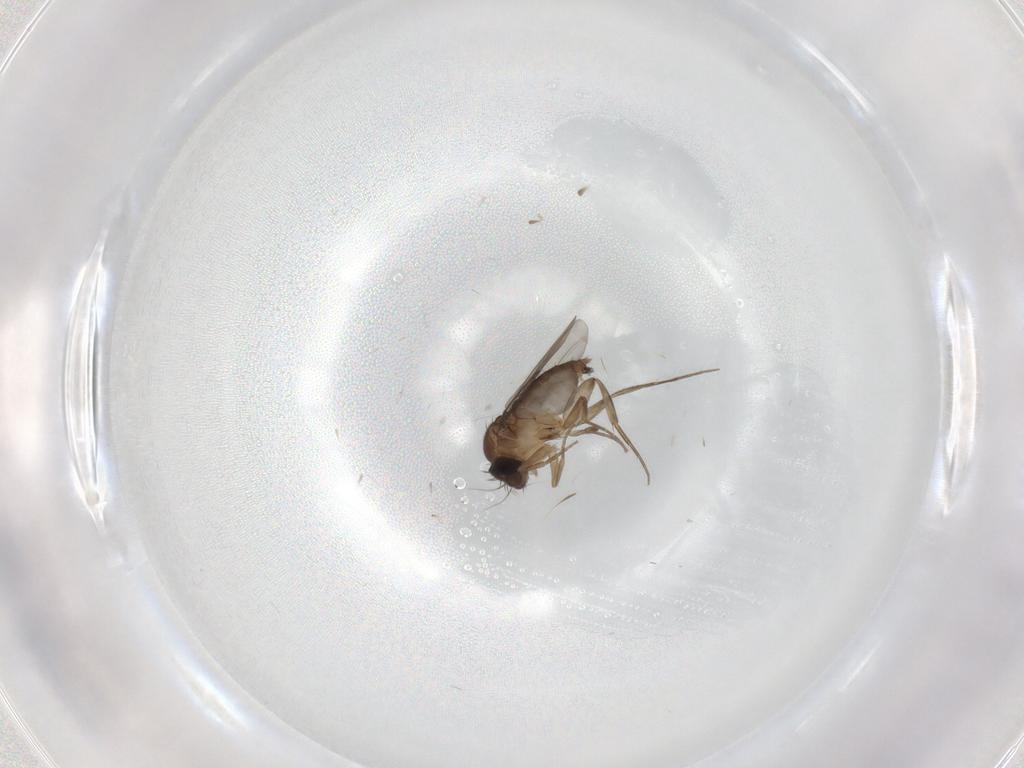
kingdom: Animalia
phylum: Arthropoda
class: Insecta
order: Diptera
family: Phoridae
